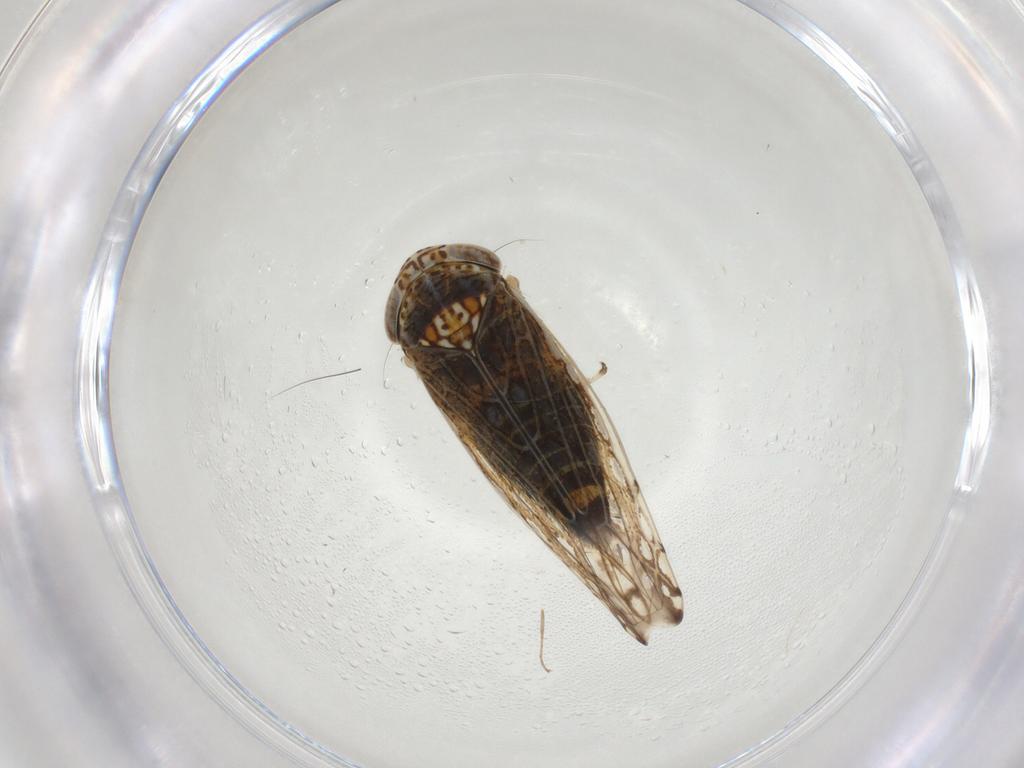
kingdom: Animalia
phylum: Arthropoda
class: Insecta
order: Hemiptera
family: Cicadellidae
